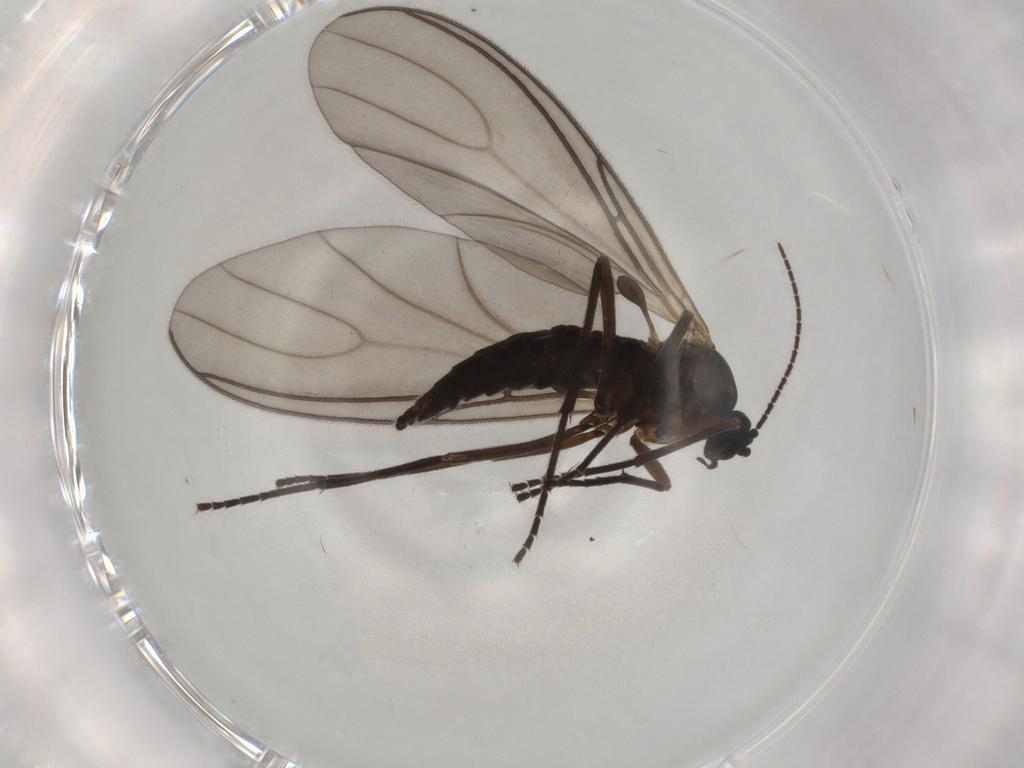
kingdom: Animalia
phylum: Arthropoda
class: Insecta
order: Diptera
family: Sciaridae
